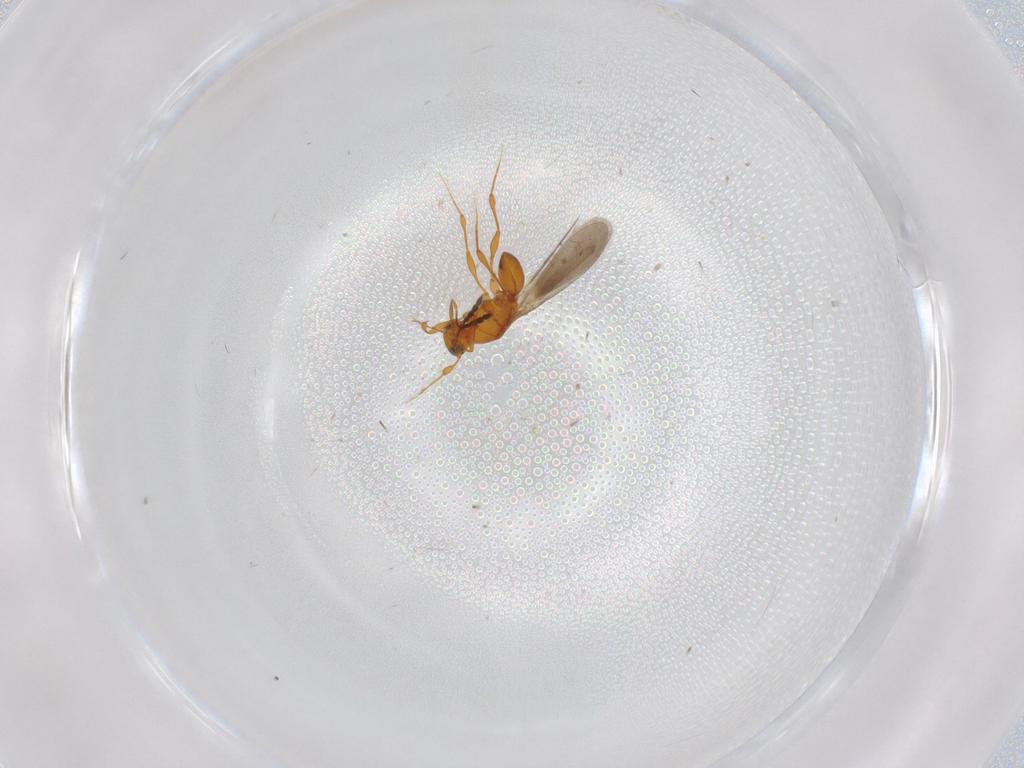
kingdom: Animalia
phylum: Arthropoda
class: Insecta
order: Hymenoptera
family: Platygastridae
